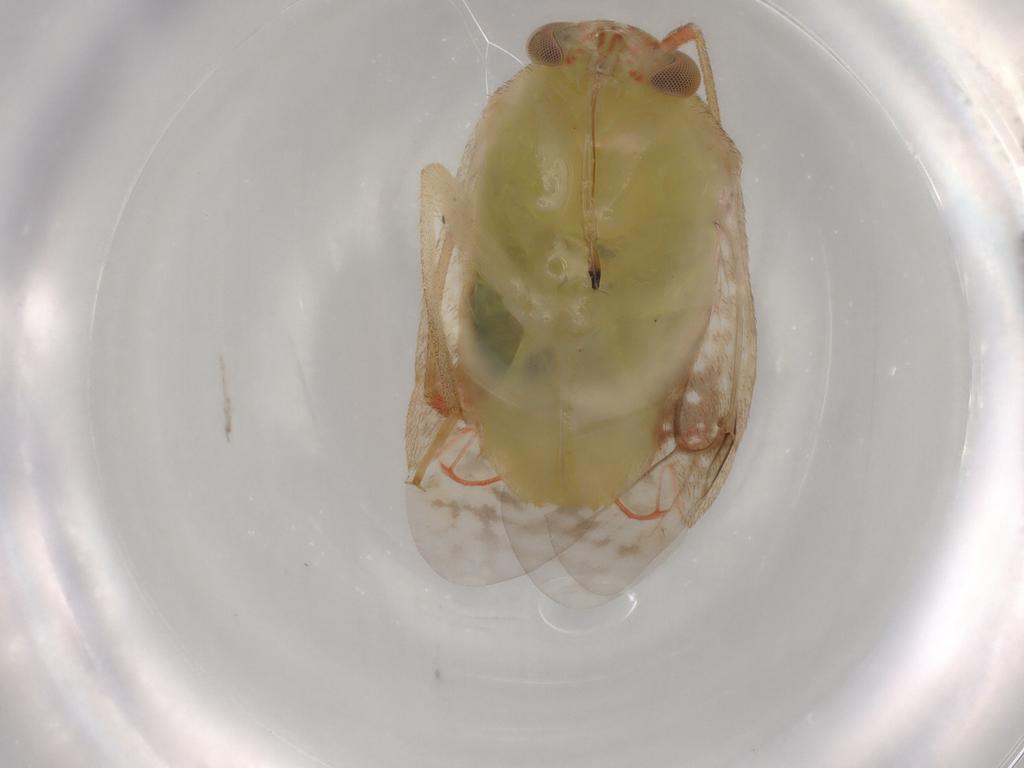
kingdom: Animalia
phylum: Arthropoda
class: Insecta
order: Hemiptera
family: Miridae
